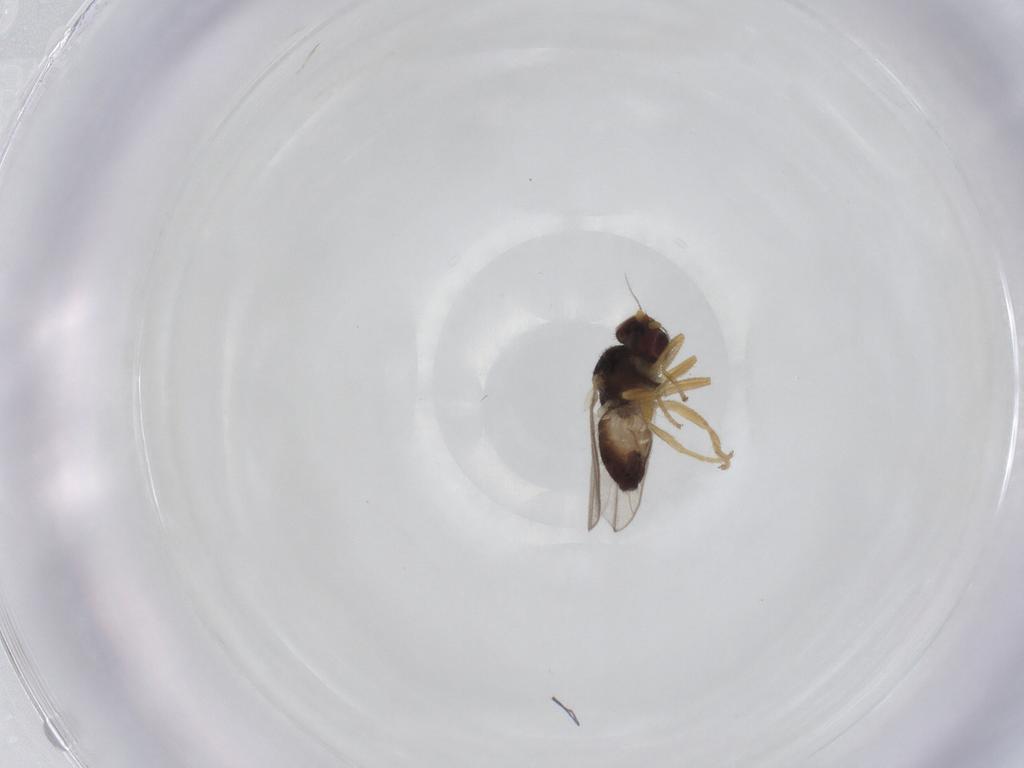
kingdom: Animalia
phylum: Arthropoda
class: Insecta
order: Diptera
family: Chloropidae
